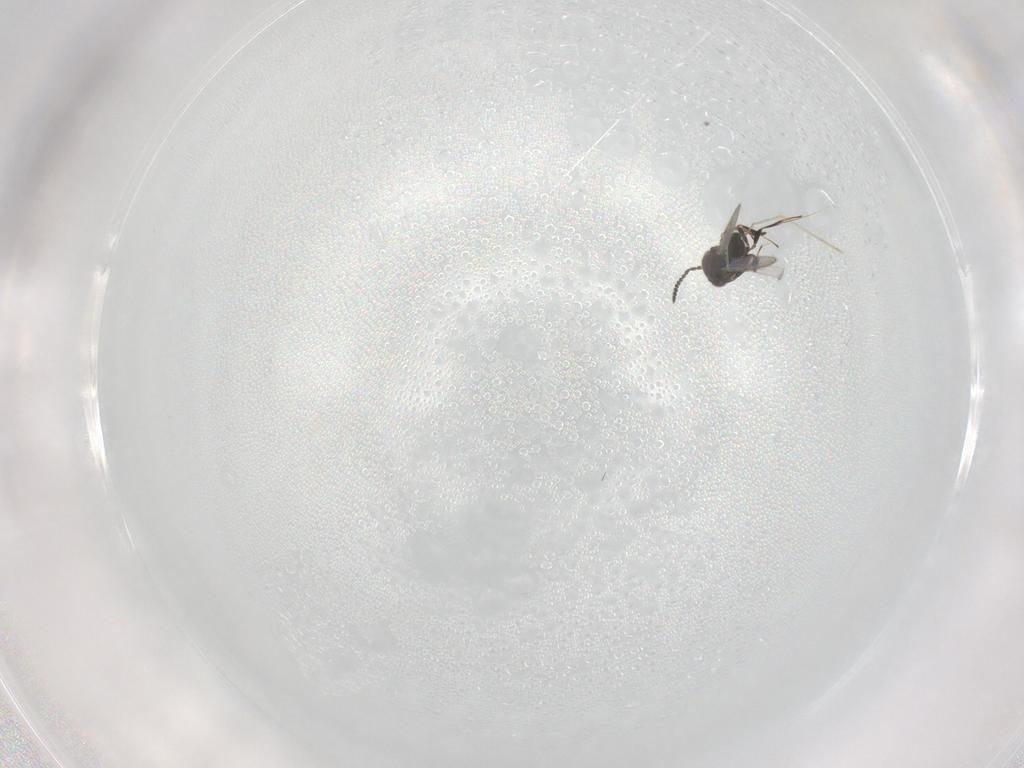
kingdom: Animalia
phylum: Arthropoda
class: Insecta
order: Hymenoptera
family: Scelionidae
